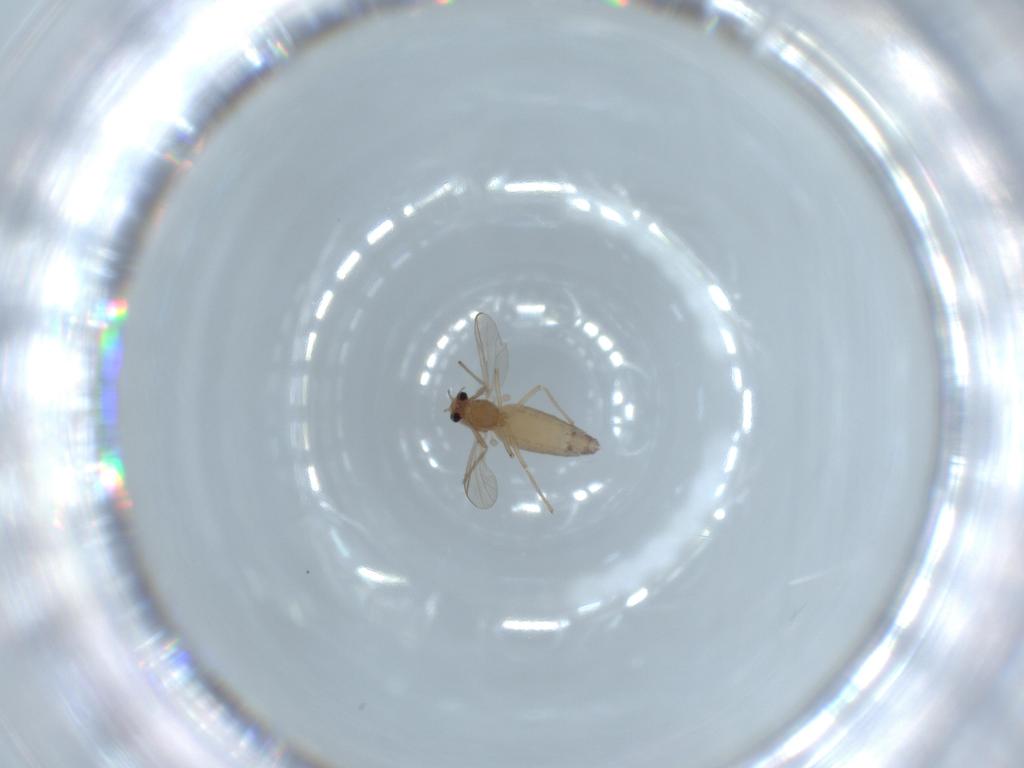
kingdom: Animalia
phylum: Arthropoda
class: Insecta
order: Diptera
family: Chironomidae
